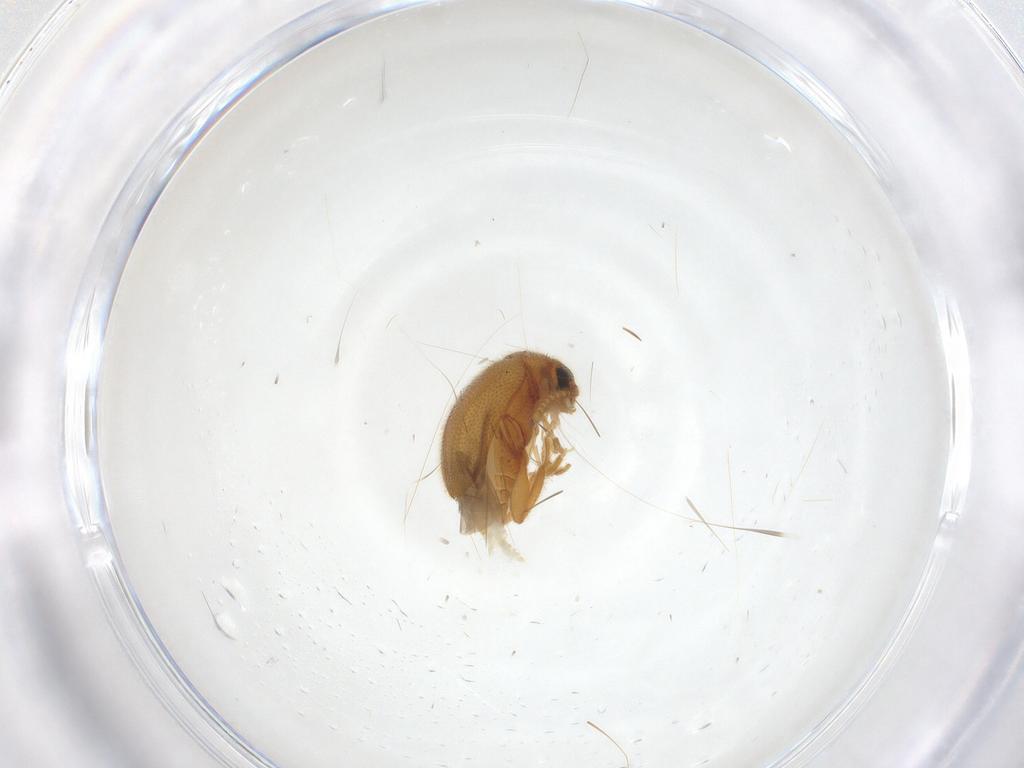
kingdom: Animalia
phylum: Arthropoda
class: Insecta
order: Coleoptera
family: Aderidae
